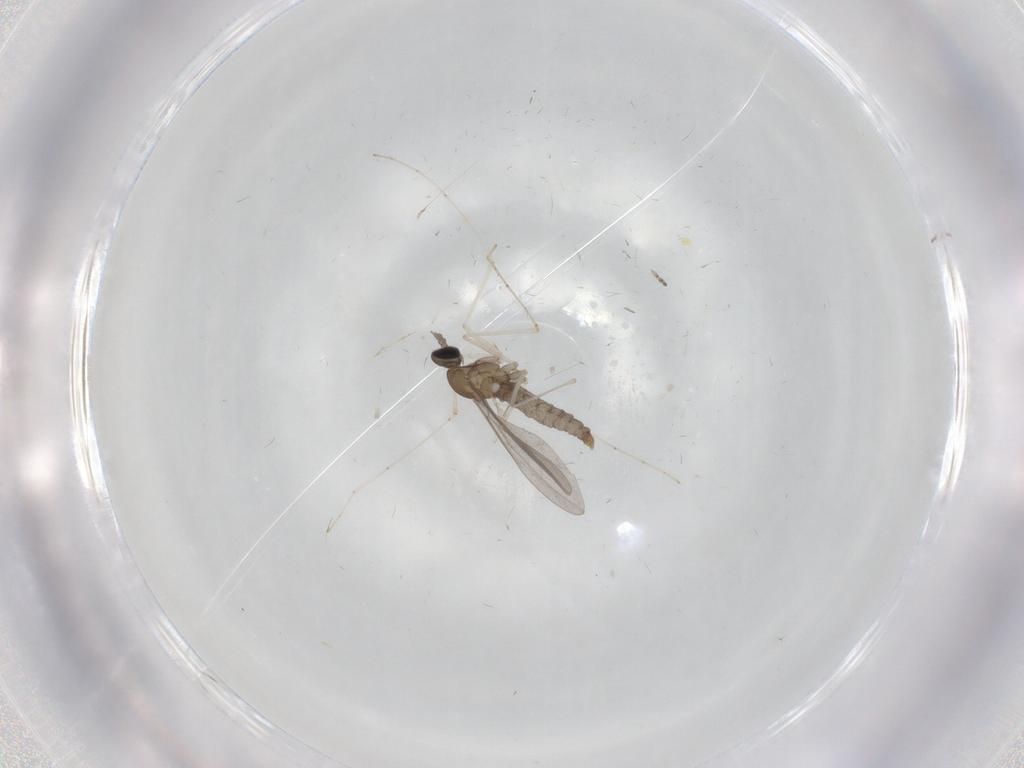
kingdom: Animalia
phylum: Arthropoda
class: Insecta
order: Diptera
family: Cecidomyiidae
